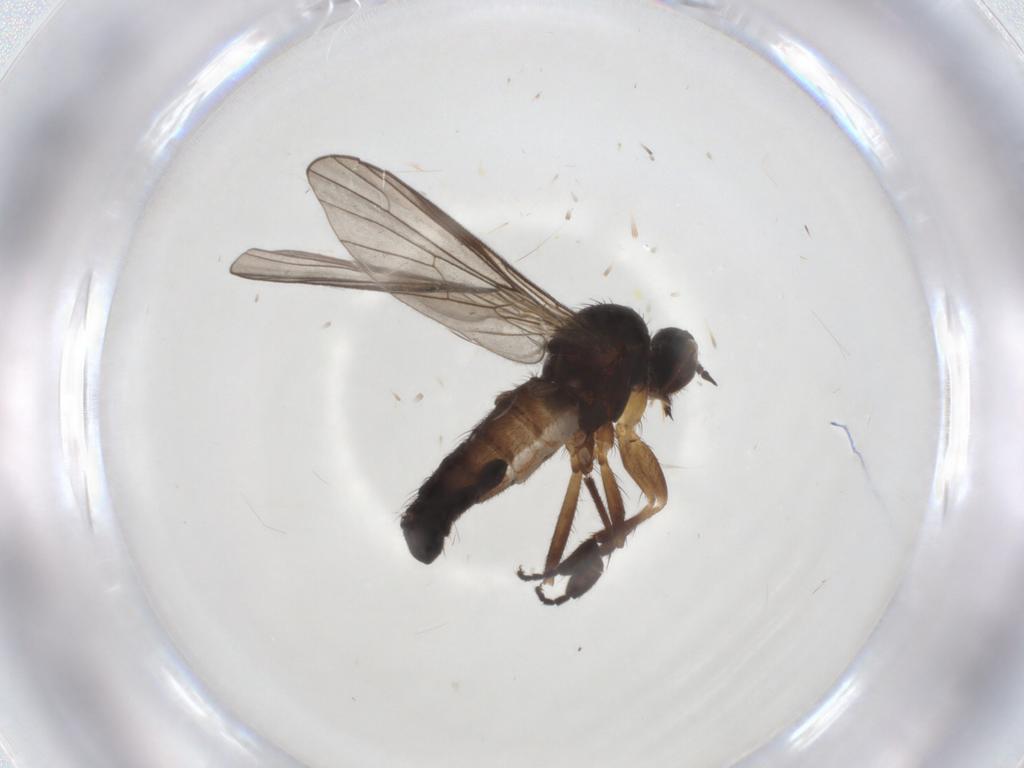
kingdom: Animalia
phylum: Arthropoda
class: Insecta
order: Diptera
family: Empididae
